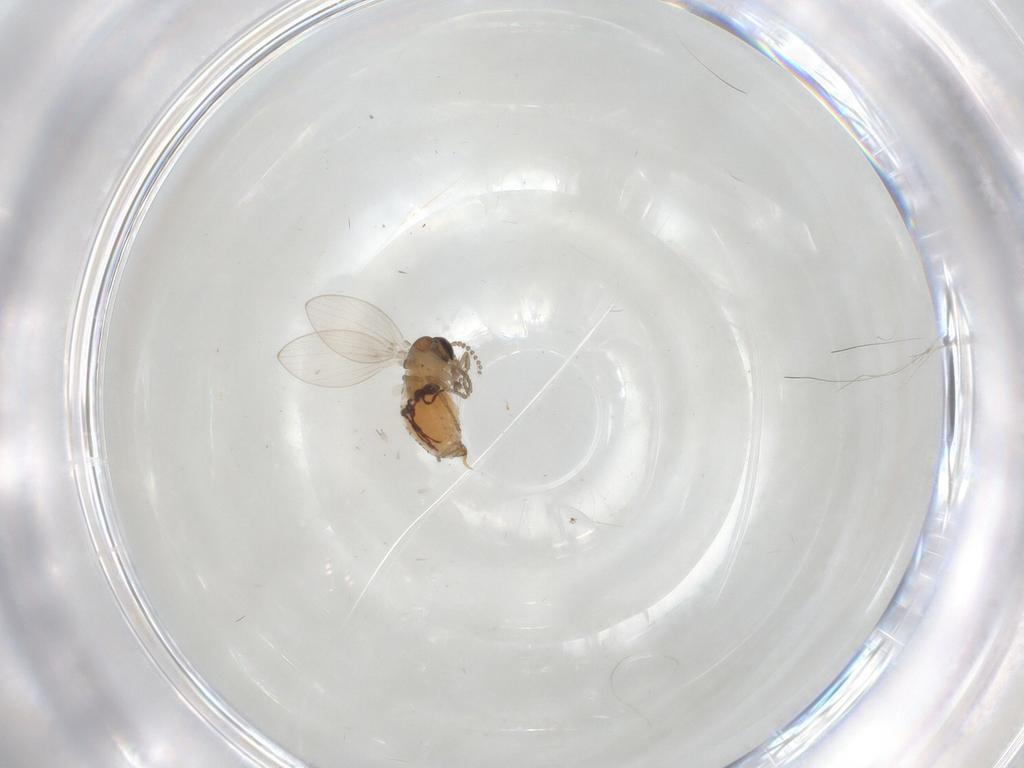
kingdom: Animalia
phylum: Arthropoda
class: Insecta
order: Diptera
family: Psychodidae
